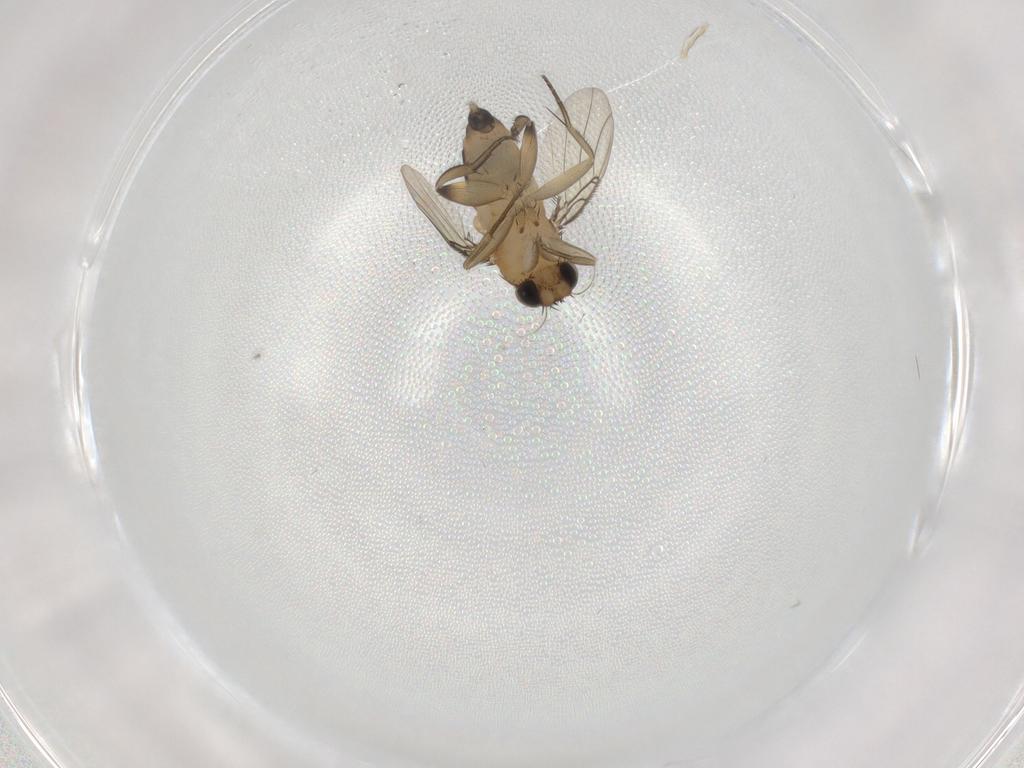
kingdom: Animalia
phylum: Arthropoda
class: Insecta
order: Diptera
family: Phoridae
